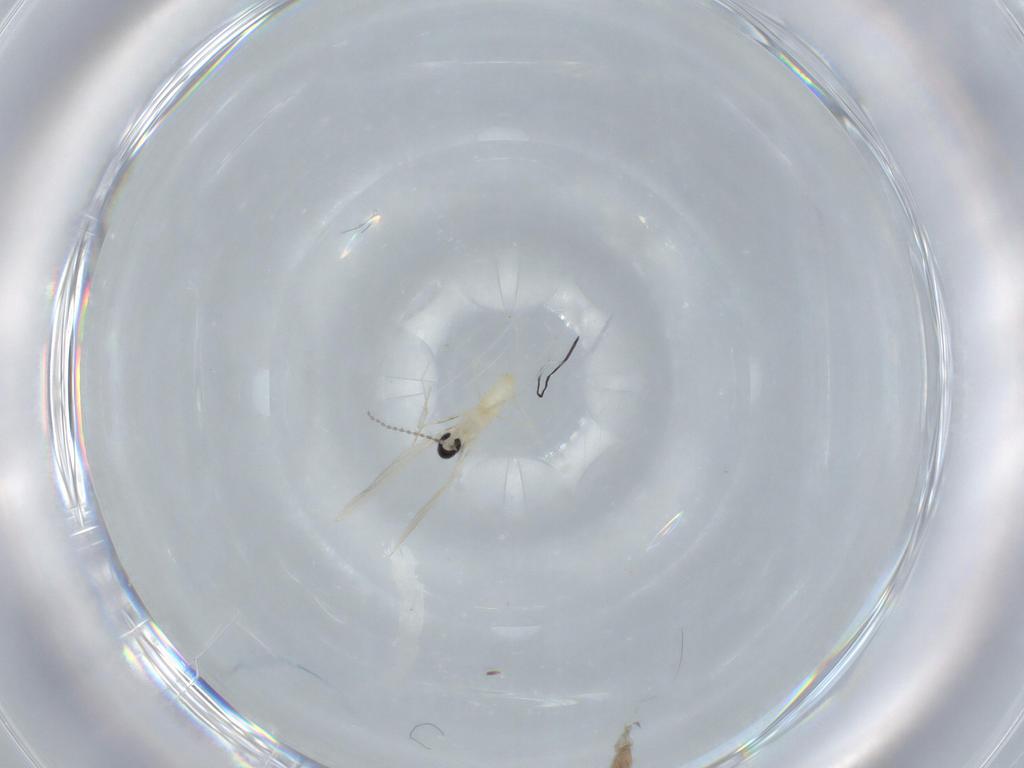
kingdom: Animalia
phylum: Arthropoda
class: Insecta
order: Diptera
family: Cecidomyiidae
